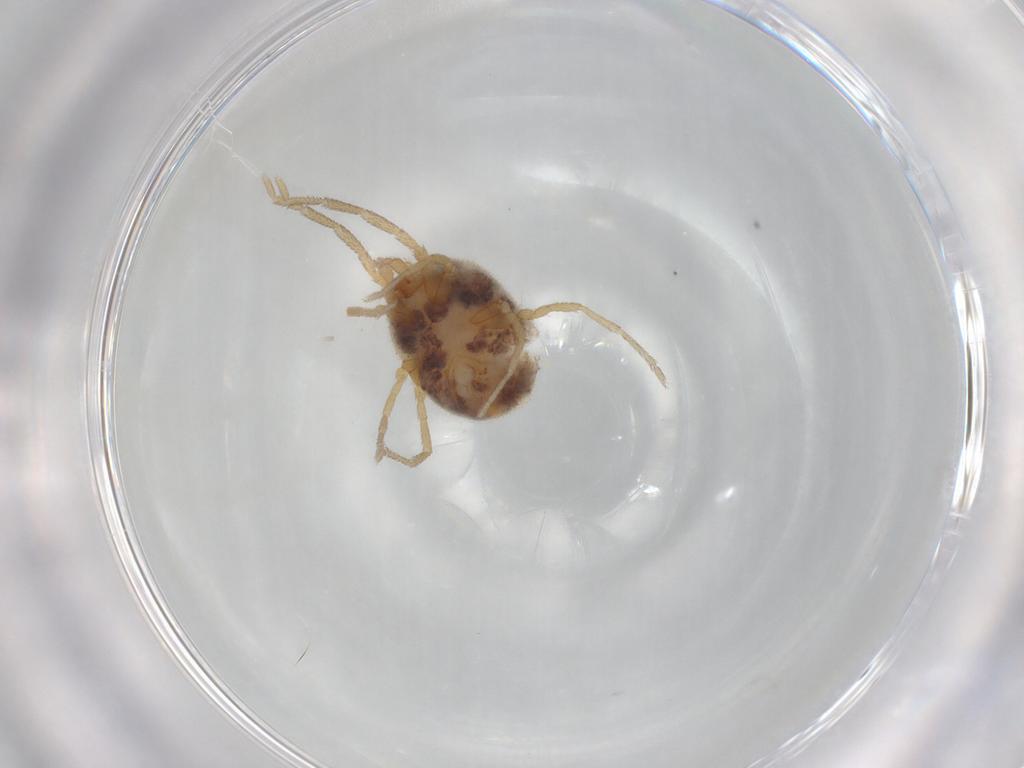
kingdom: Animalia
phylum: Arthropoda
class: Arachnida
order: Trombidiformes
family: Erythraeidae
